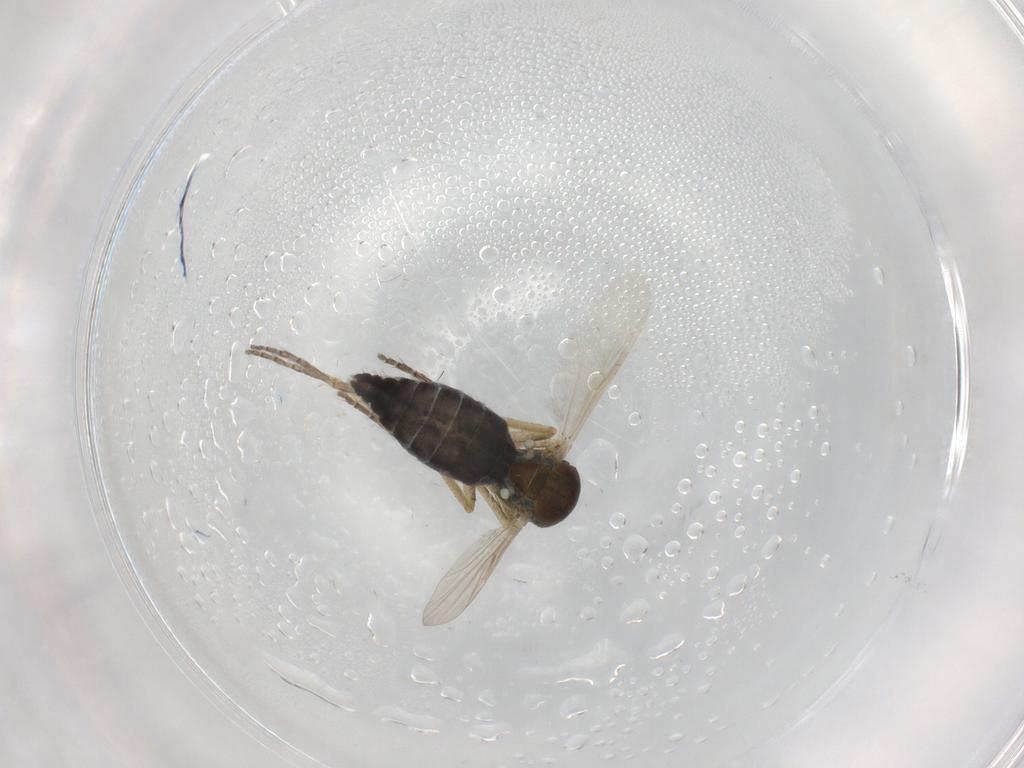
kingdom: Animalia
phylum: Arthropoda
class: Insecta
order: Diptera
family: Ceratopogonidae
